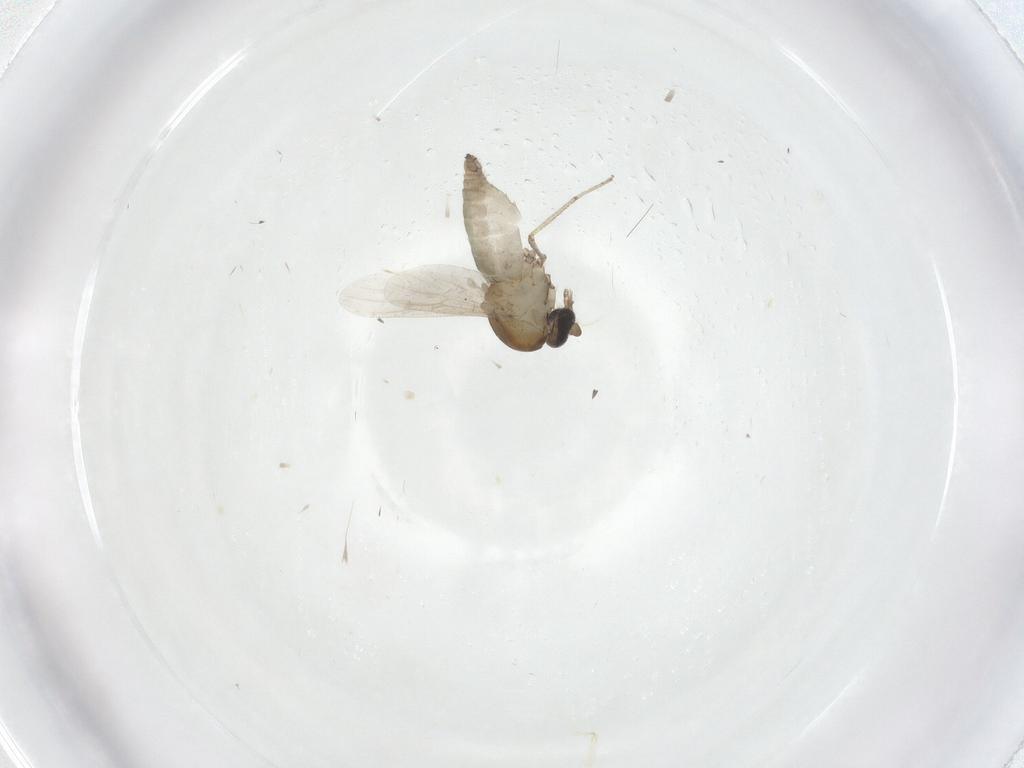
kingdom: Animalia
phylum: Arthropoda
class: Insecta
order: Diptera
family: Ceratopogonidae
